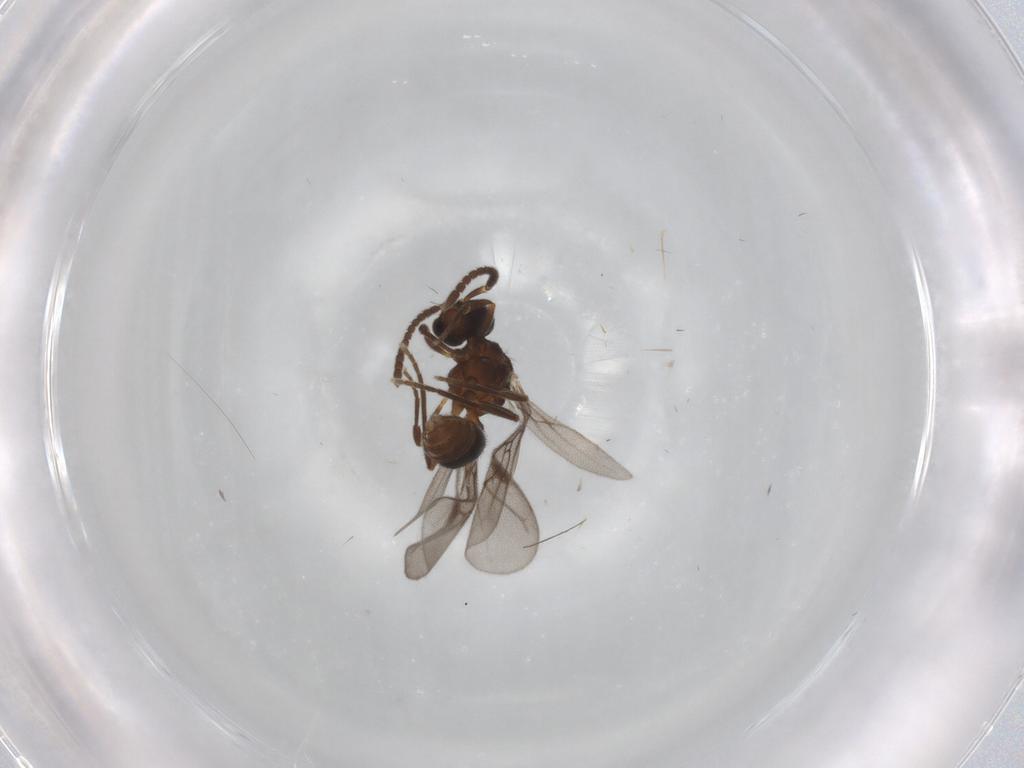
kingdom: Animalia
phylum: Arthropoda
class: Insecta
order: Hymenoptera
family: Formicidae
